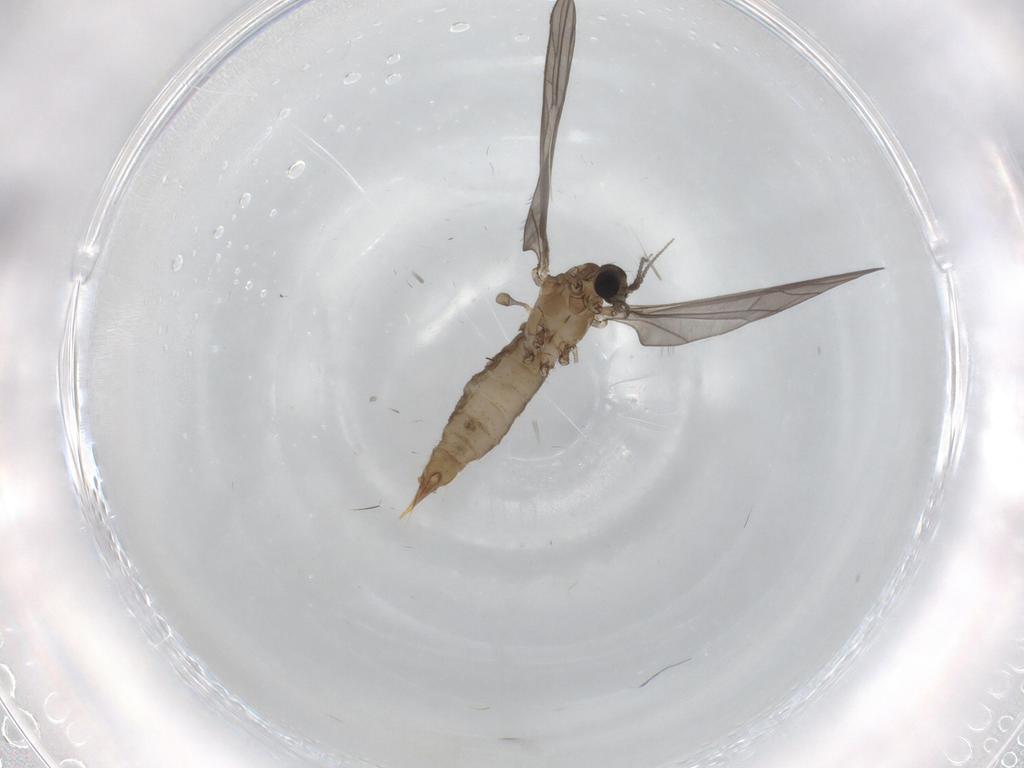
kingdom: Animalia
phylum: Arthropoda
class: Insecta
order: Diptera
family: Limoniidae
